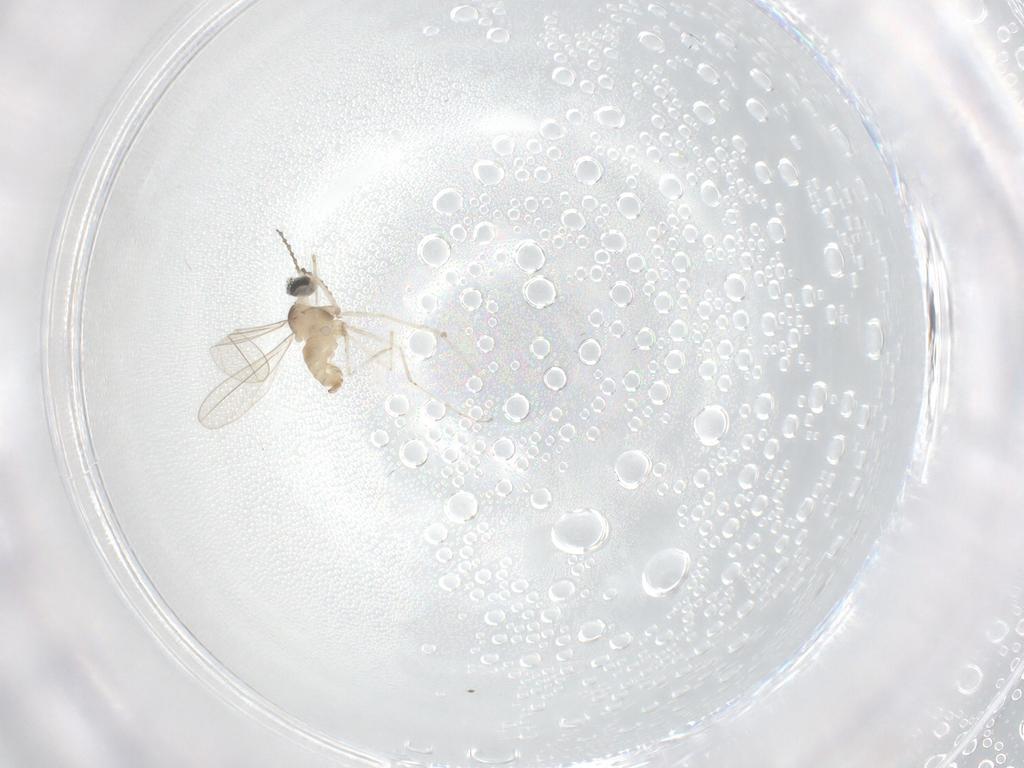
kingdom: Animalia
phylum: Arthropoda
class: Insecta
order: Diptera
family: Cecidomyiidae
